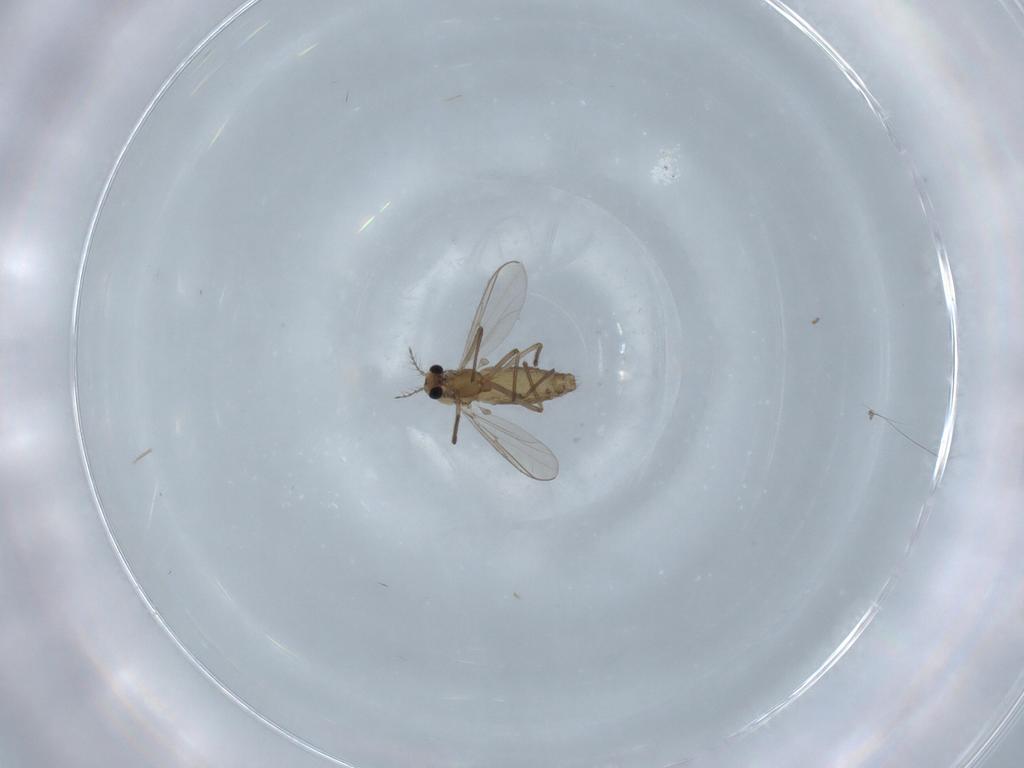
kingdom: Animalia
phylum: Arthropoda
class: Insecta
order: Diptera
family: Chironomidae
